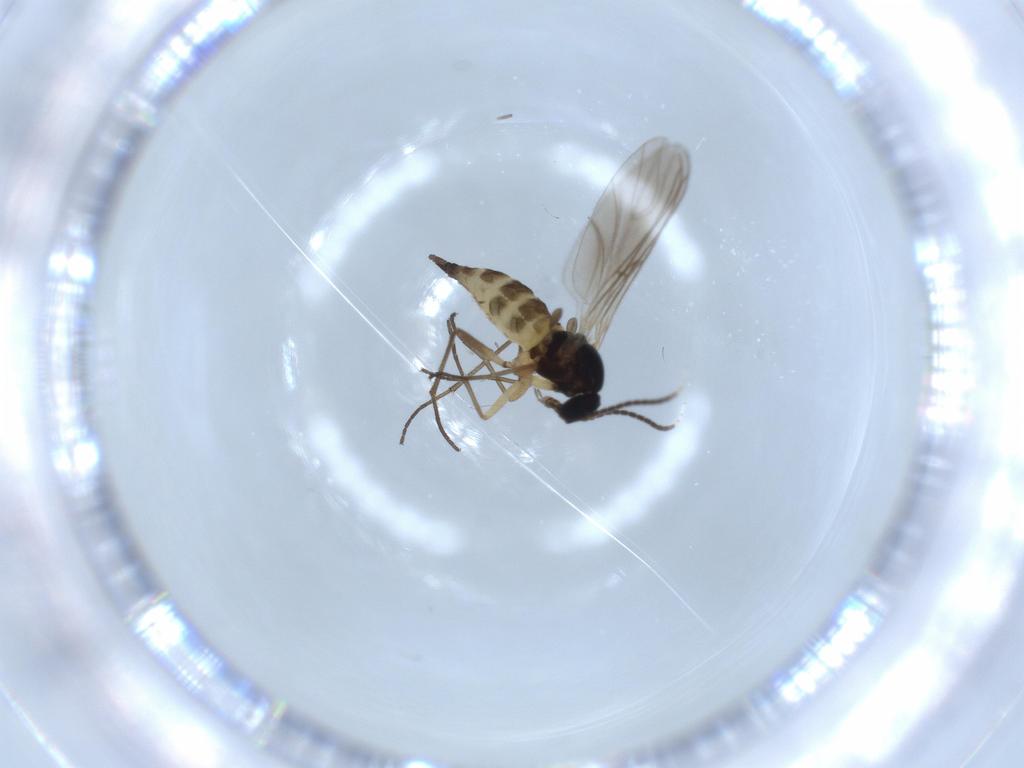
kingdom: Animalia
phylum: Arthropoda
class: Insecta
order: Diptera
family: Sciaridae
